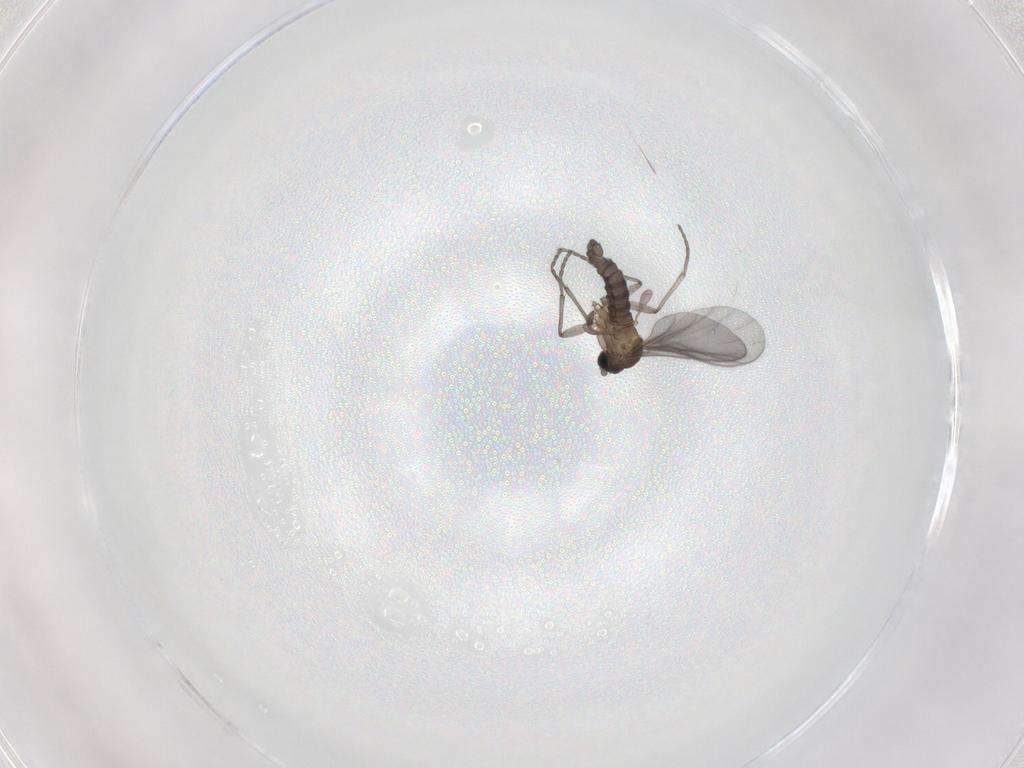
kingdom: Animalia
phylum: Arthropoda
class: Insecta
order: Diptera
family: Sciaridae
